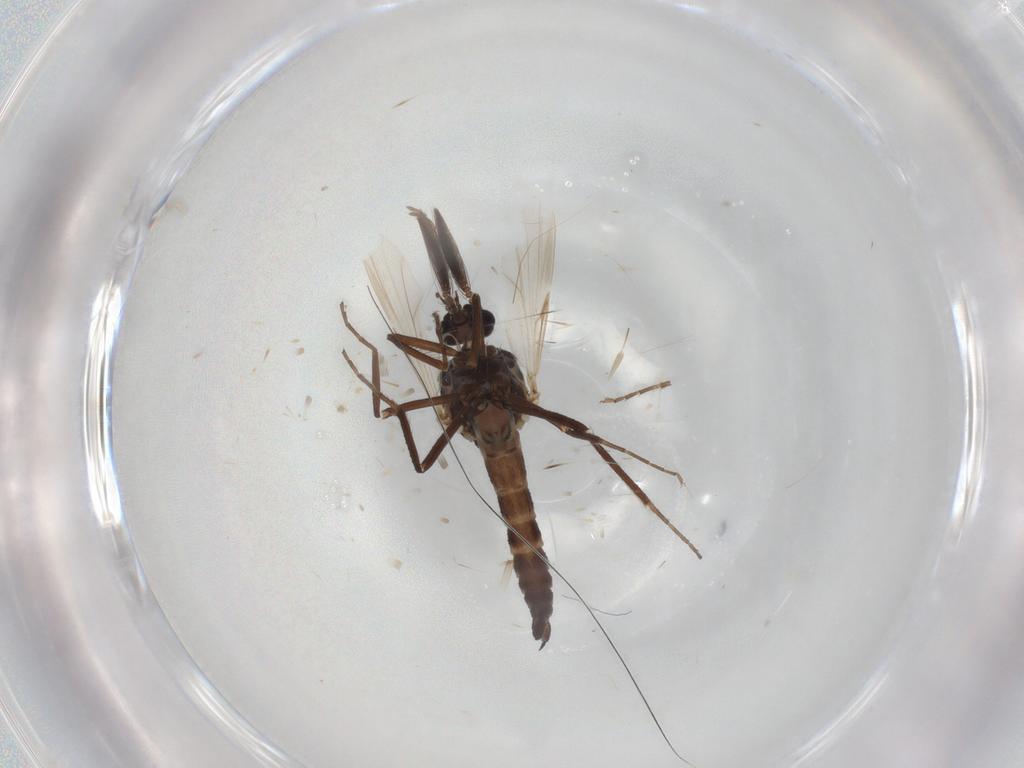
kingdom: Animalia
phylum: Arthropoda
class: Insecta
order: Diptera
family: Ceratopogonidae
